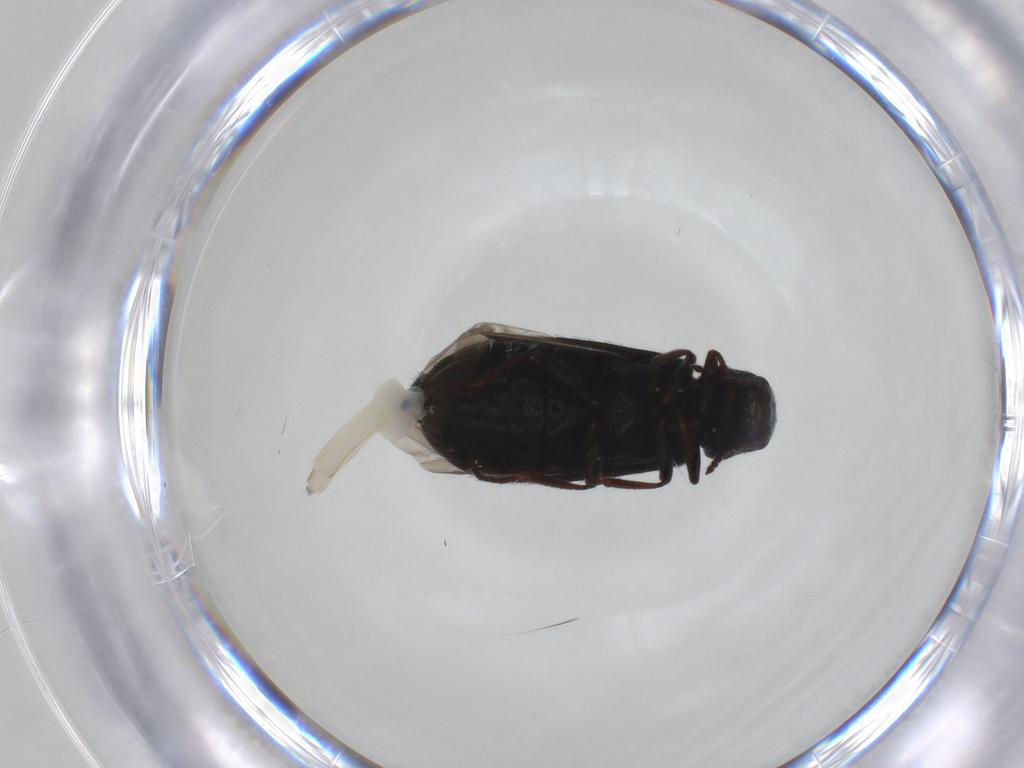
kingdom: Animalia
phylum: Arthropoda
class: Insecta
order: Coleoptera
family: Melyridae
